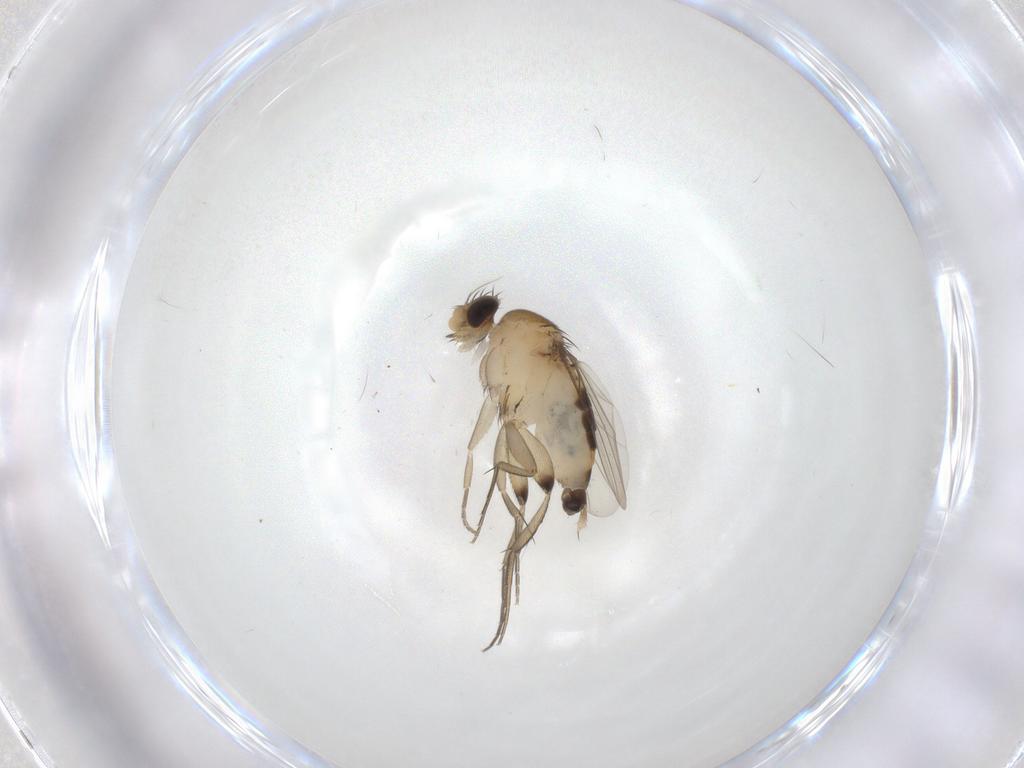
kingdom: Animalia
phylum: Arthropoda
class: Insecta
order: Diptera
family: Phoridae
